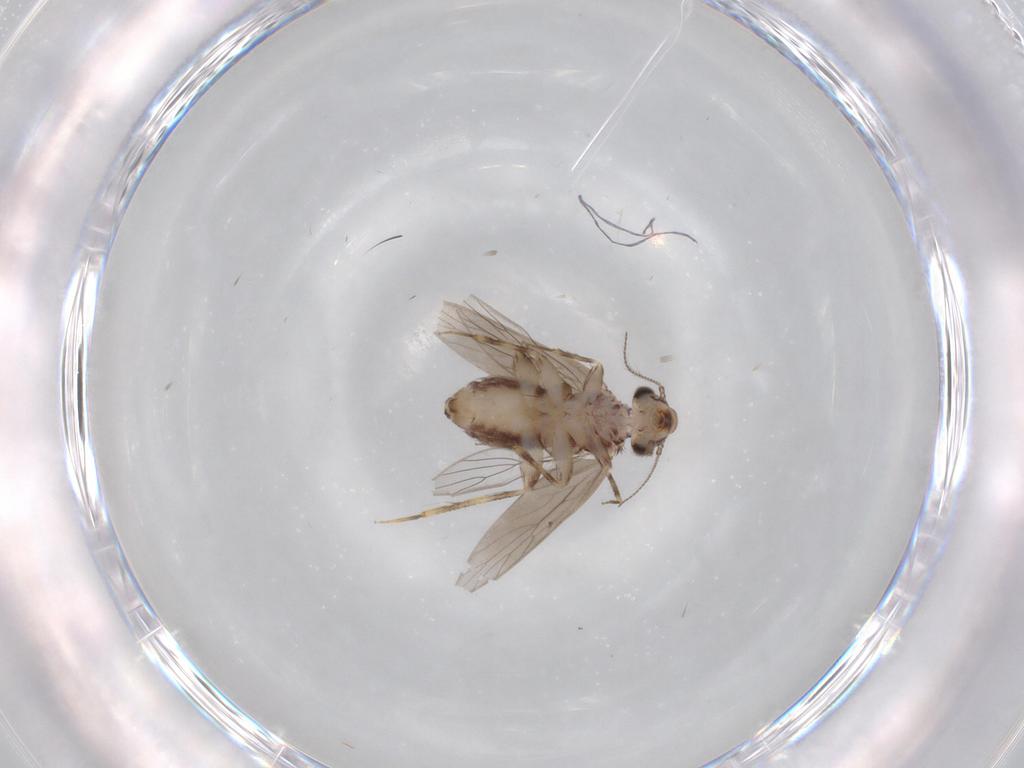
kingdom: Animalia
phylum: Arthropoda
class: Insecta
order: Psocodea
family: Lepidopsocidae
